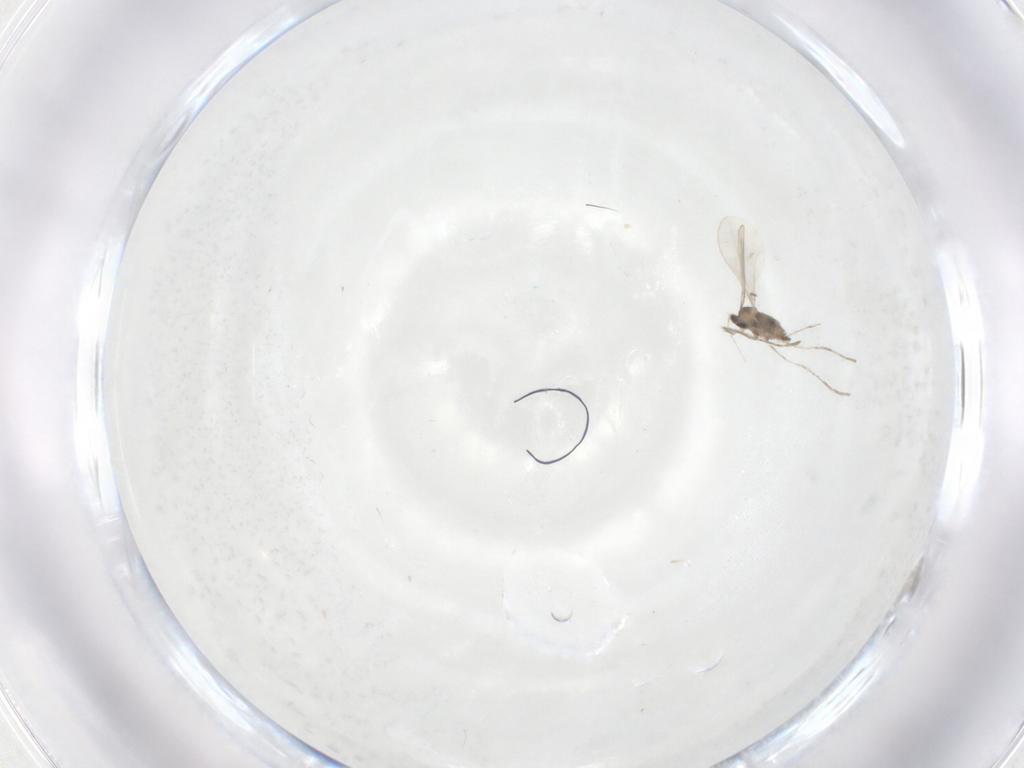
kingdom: Animalia
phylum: Arthropoda
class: Insecta
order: Diptera
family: Cecidomyiidae
